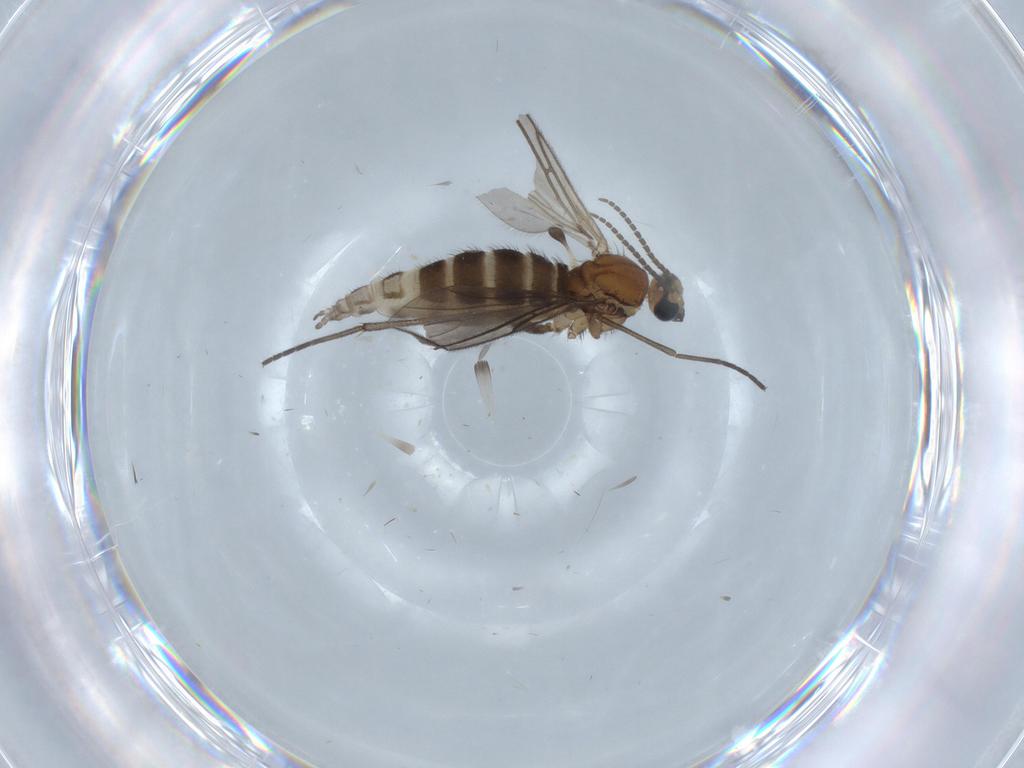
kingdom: Animalia
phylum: Arthropoda
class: Insecta
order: Diptera
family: Sciaridae
